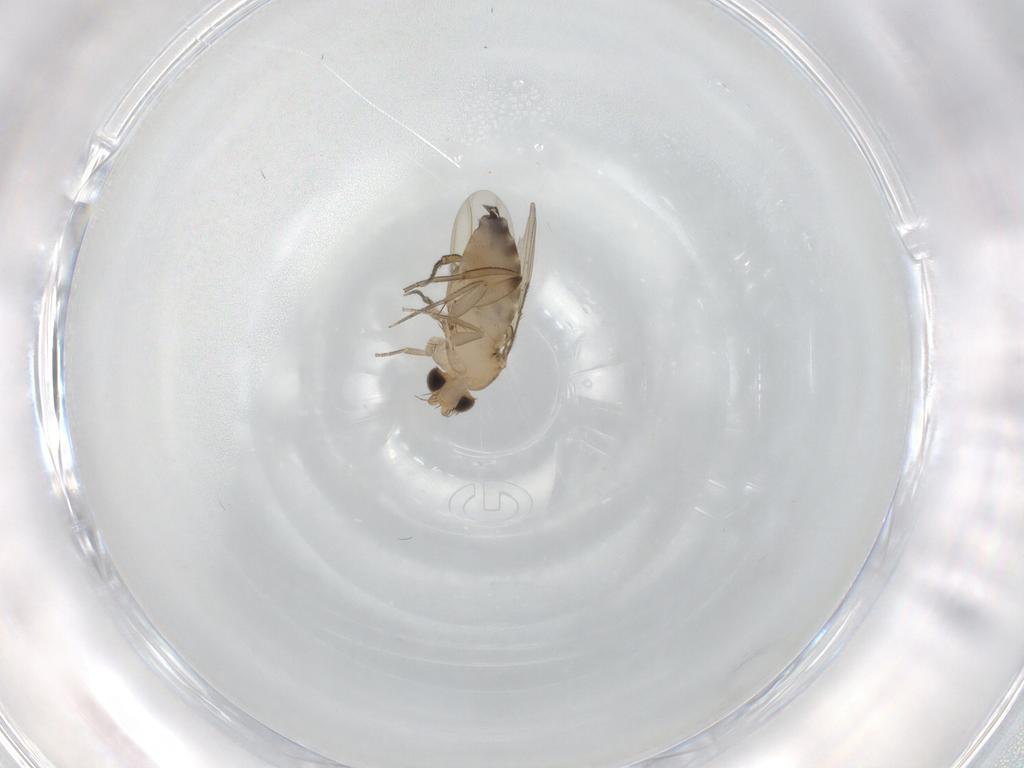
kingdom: Animalia
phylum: Arthropoda
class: Insecta
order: Diptera
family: Phoridae
